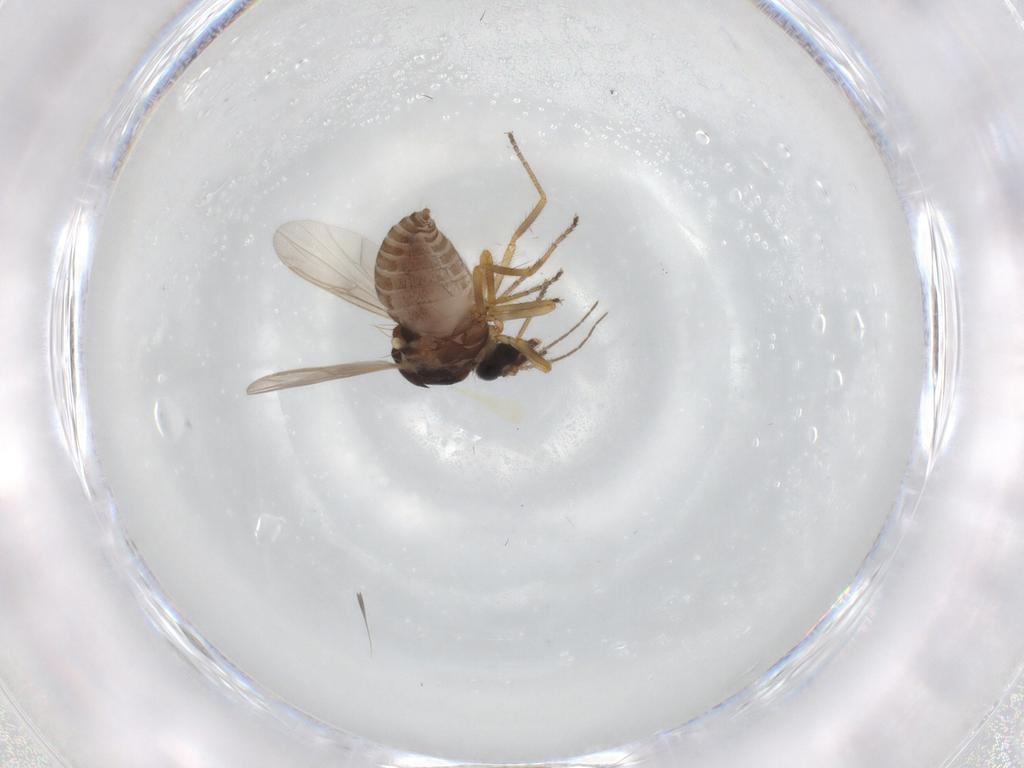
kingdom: Animalia
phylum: Arthropoda
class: Insecta
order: Diptera
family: Ceratopogonidae
